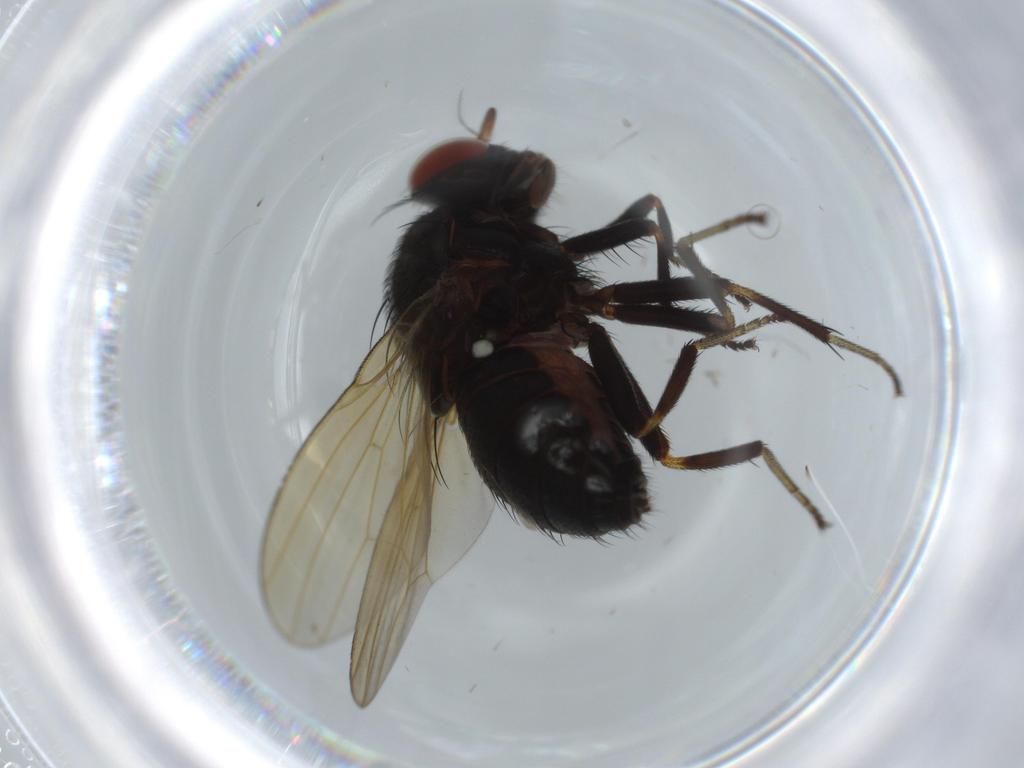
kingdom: Animalia
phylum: Arthropoda
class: Insecta
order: Diptera
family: Lauxaniidae
